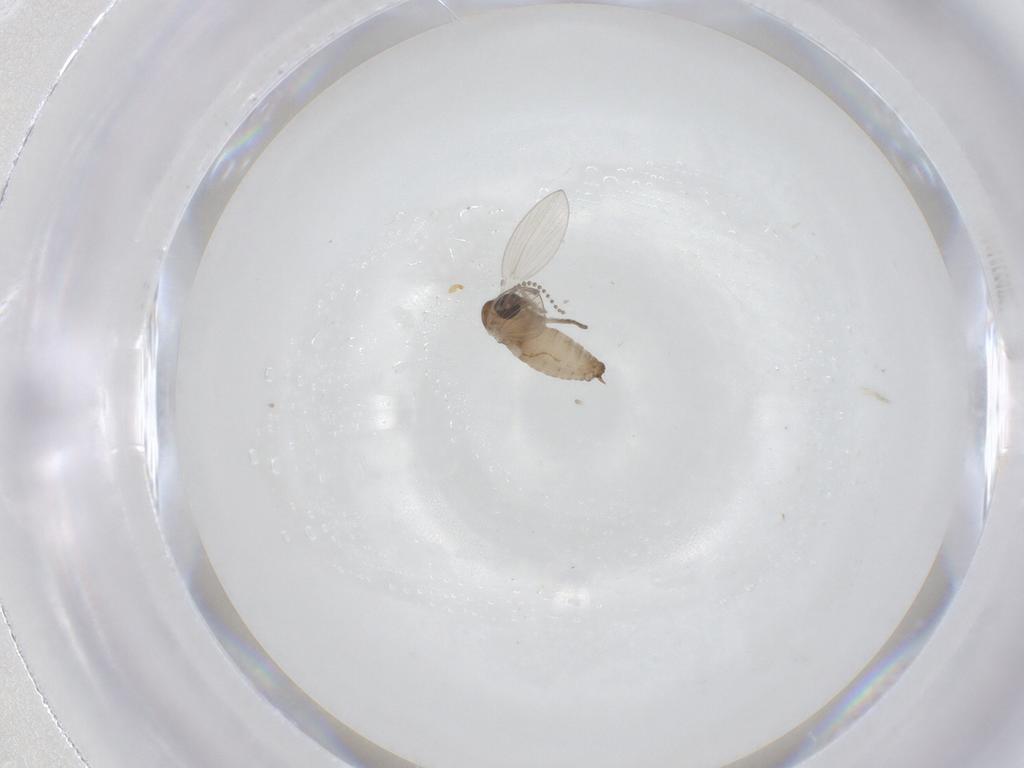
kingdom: Animalia
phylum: Arthropoda
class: Insecta
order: Diptera
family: Psychodidae
